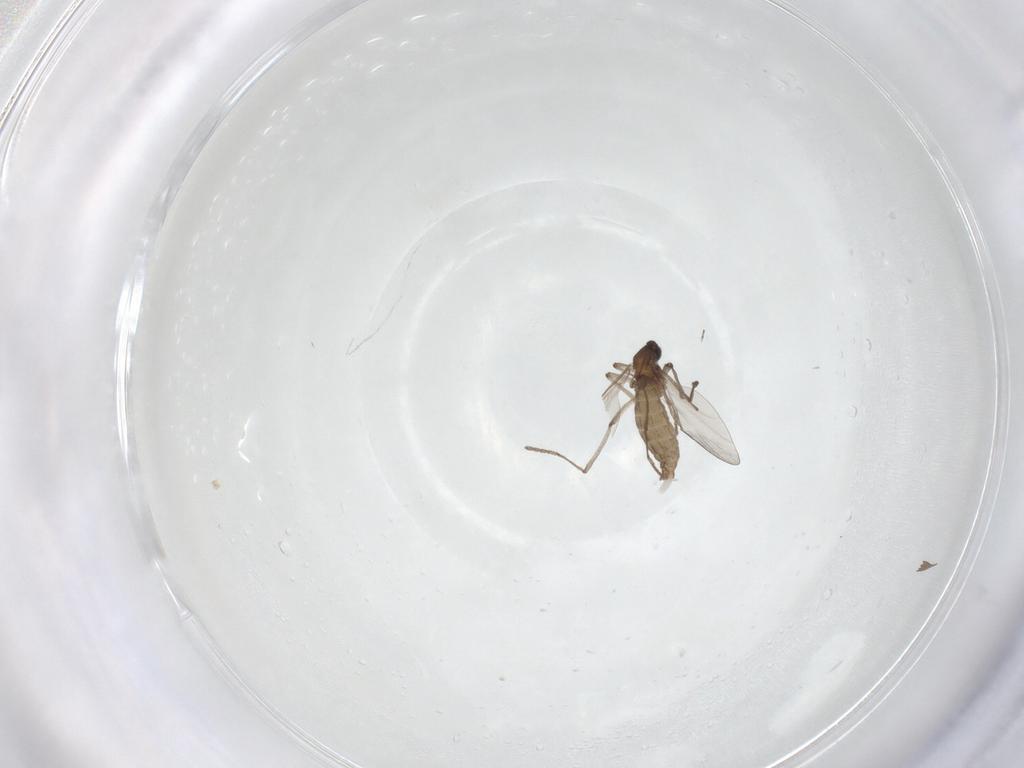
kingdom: Animalia
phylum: Arthropoda
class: Insecta
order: Diptera
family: Cecidomyiidae
